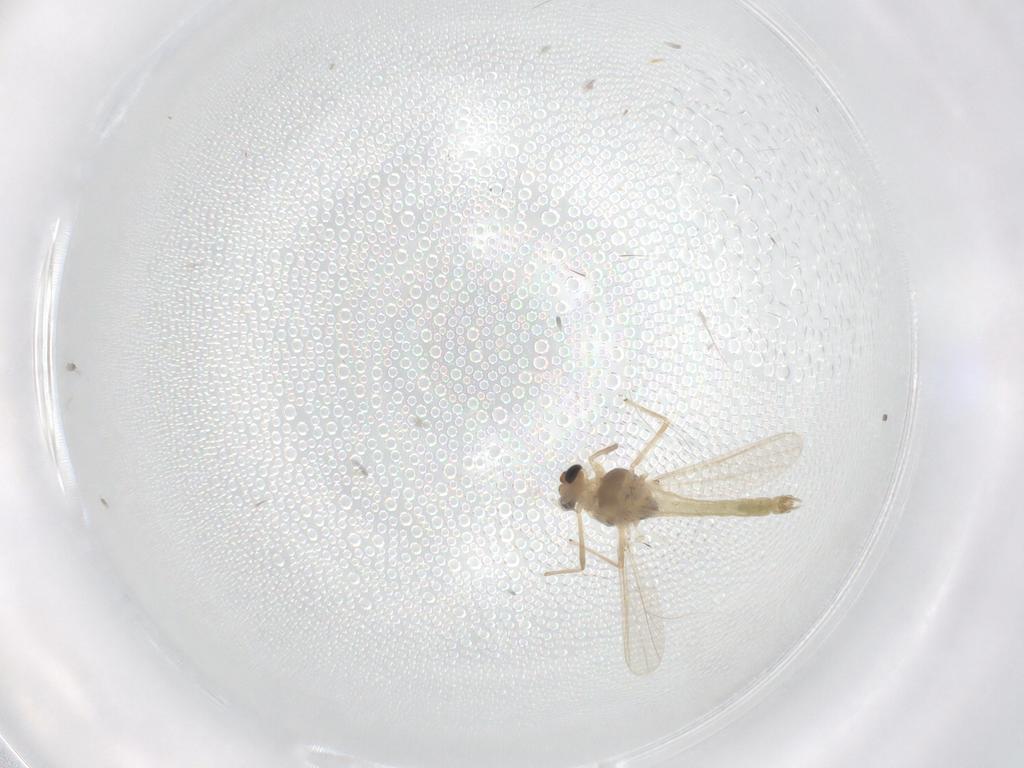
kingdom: Animalia
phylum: Arthropoda
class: Insecta
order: Diptera
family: Chironomidae
